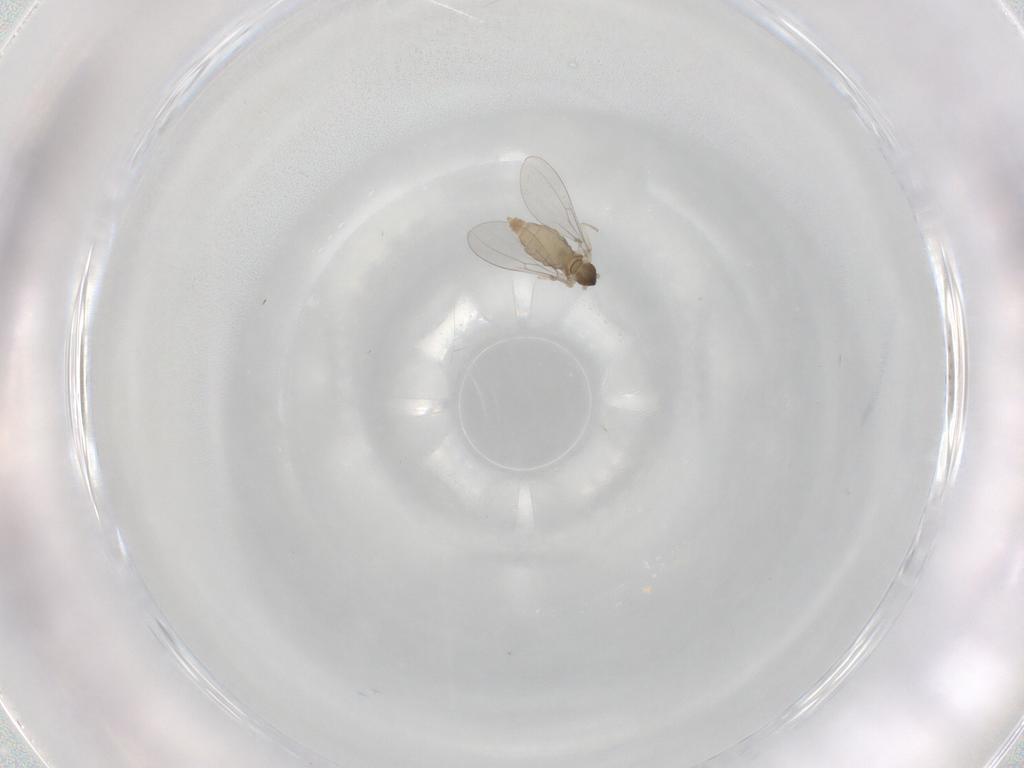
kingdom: Animalia
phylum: Arthropoda
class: Insecta
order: Diptera
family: Cecidomyiidae
